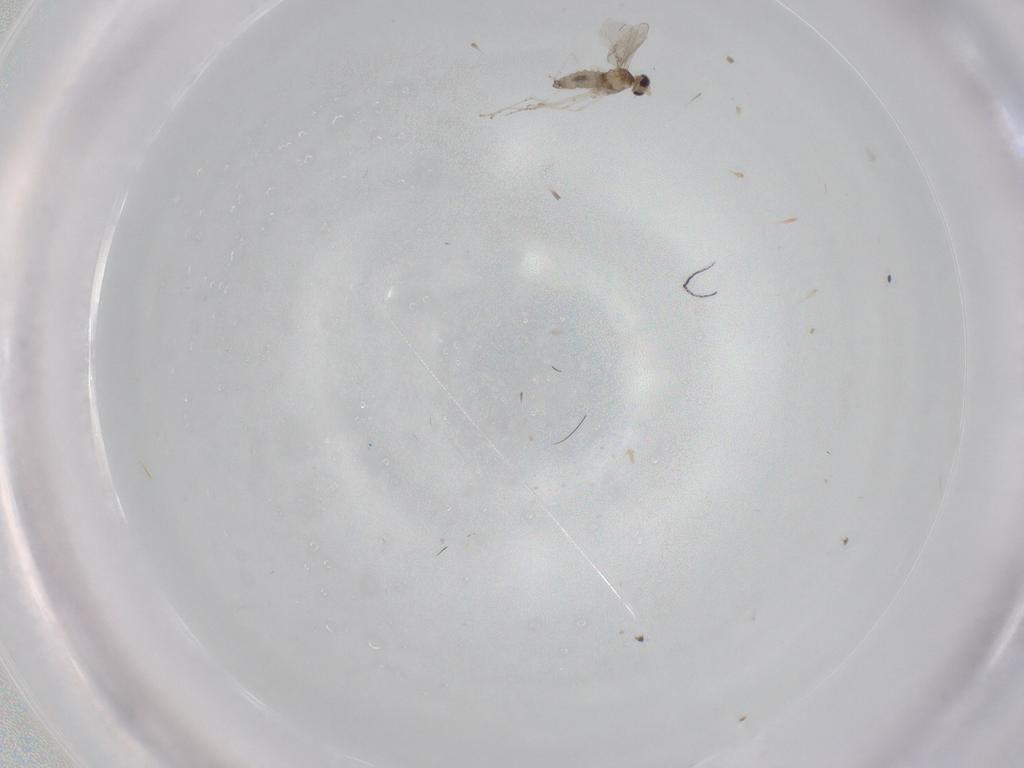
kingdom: Animalia
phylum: Arthropoda
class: Insecta
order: Diptera
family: Cecidomyiidae
